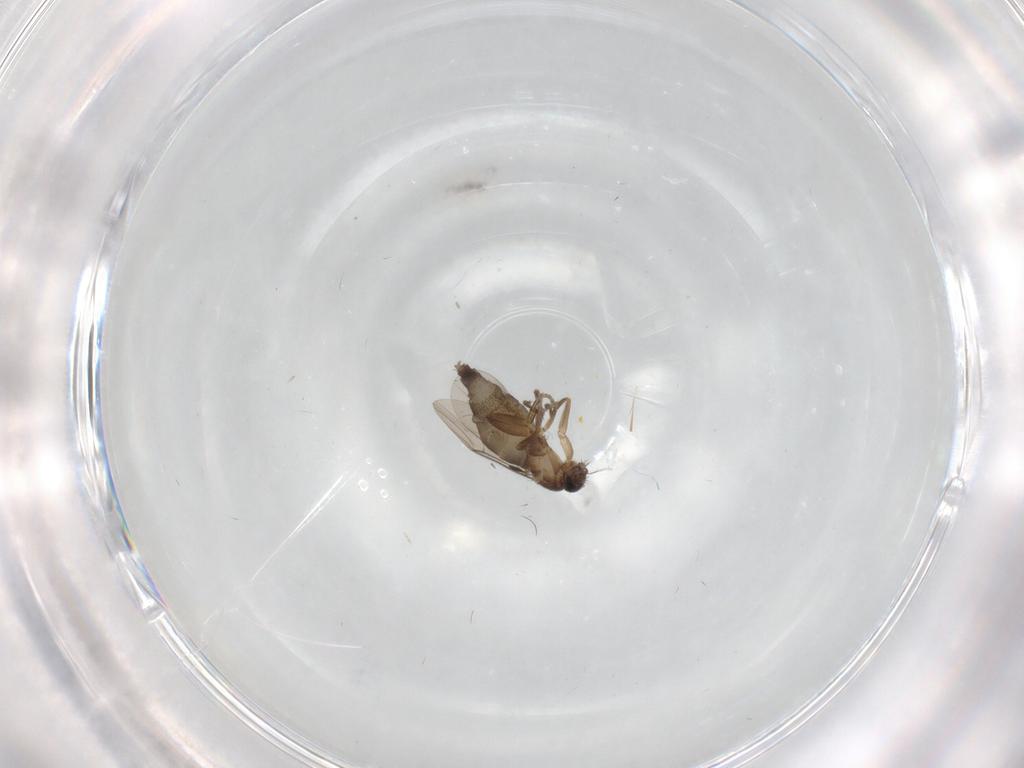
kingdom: Animalia
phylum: Arthropoda
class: Insecta
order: Diptera
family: Phoridae
